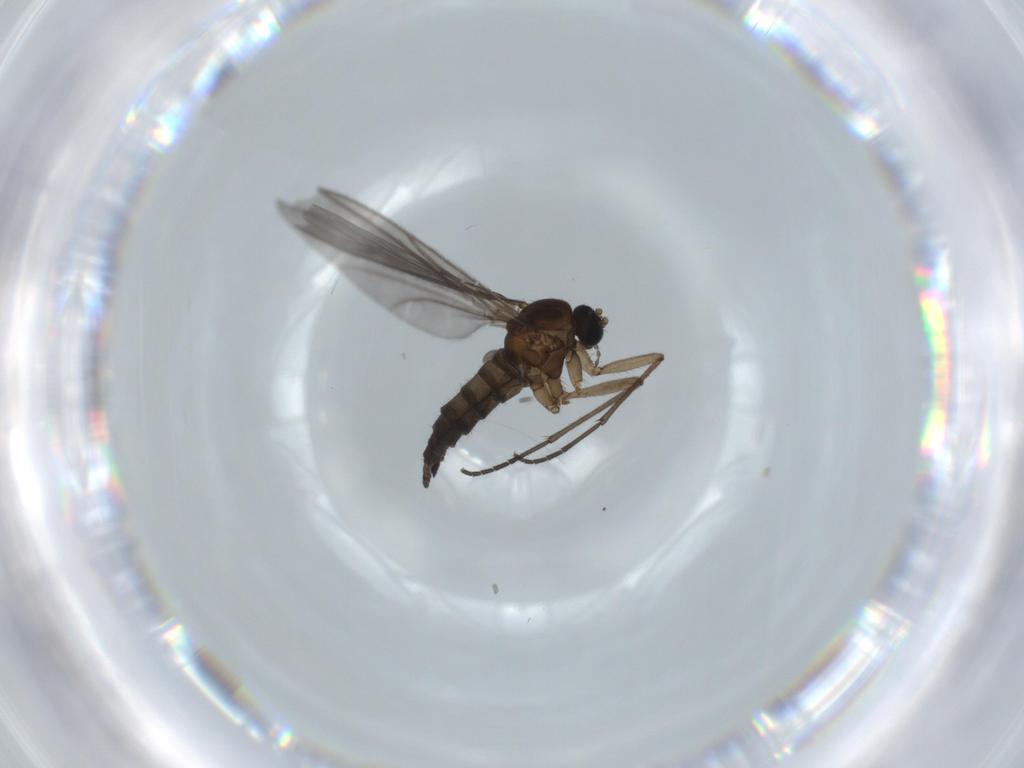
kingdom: Animalia
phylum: Arthropoda
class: Insecta
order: Diptera
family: Sciaridae
